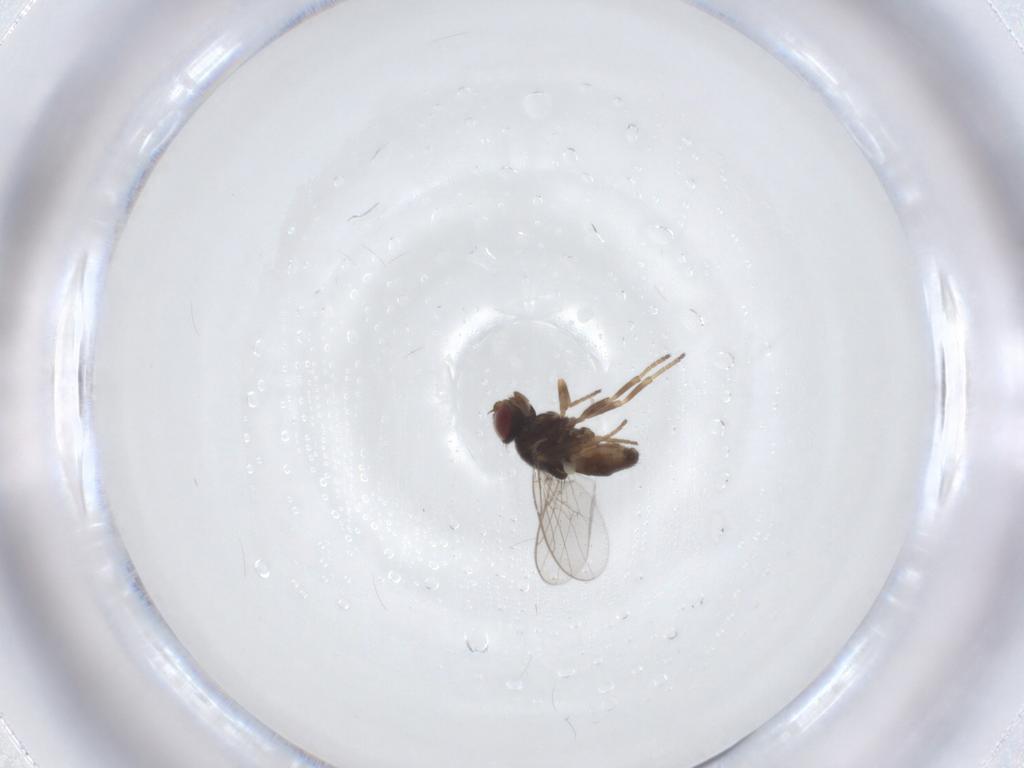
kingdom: Animalia
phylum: Arthropoda
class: Insecta
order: Diptera
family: Chloropidae
